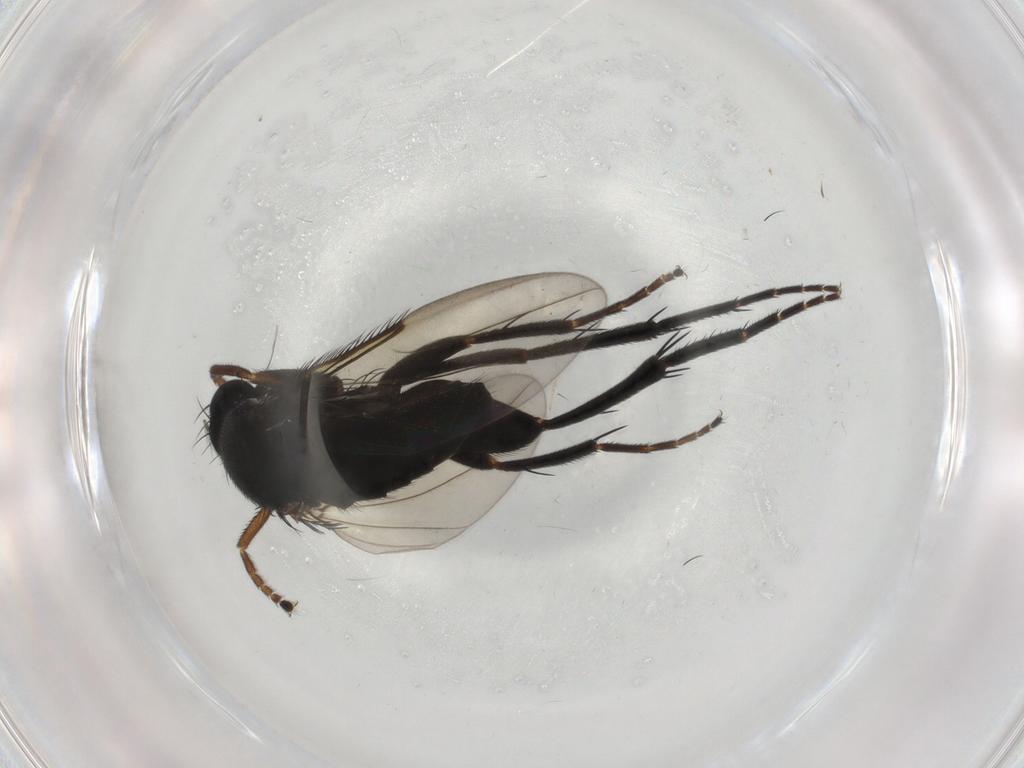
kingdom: Animalia
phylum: Arthropoda
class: Insecta
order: Diptera
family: Phoridae
